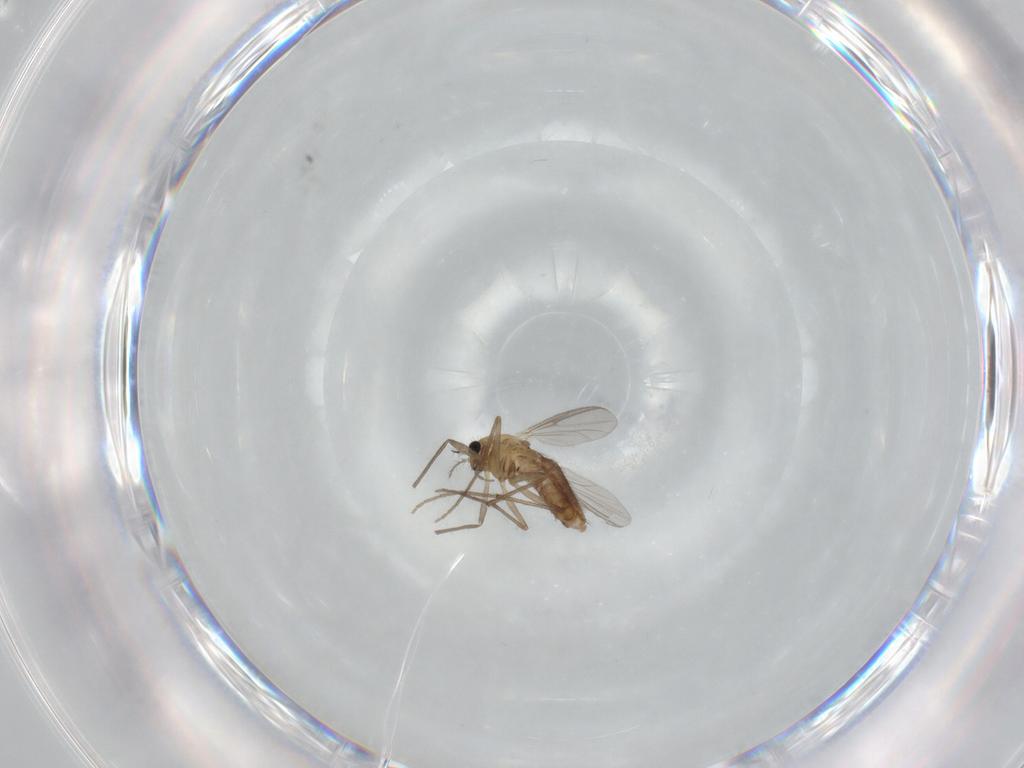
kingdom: Animalia
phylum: Arthropoda
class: Insecta
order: Diptera
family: Chironomidae
